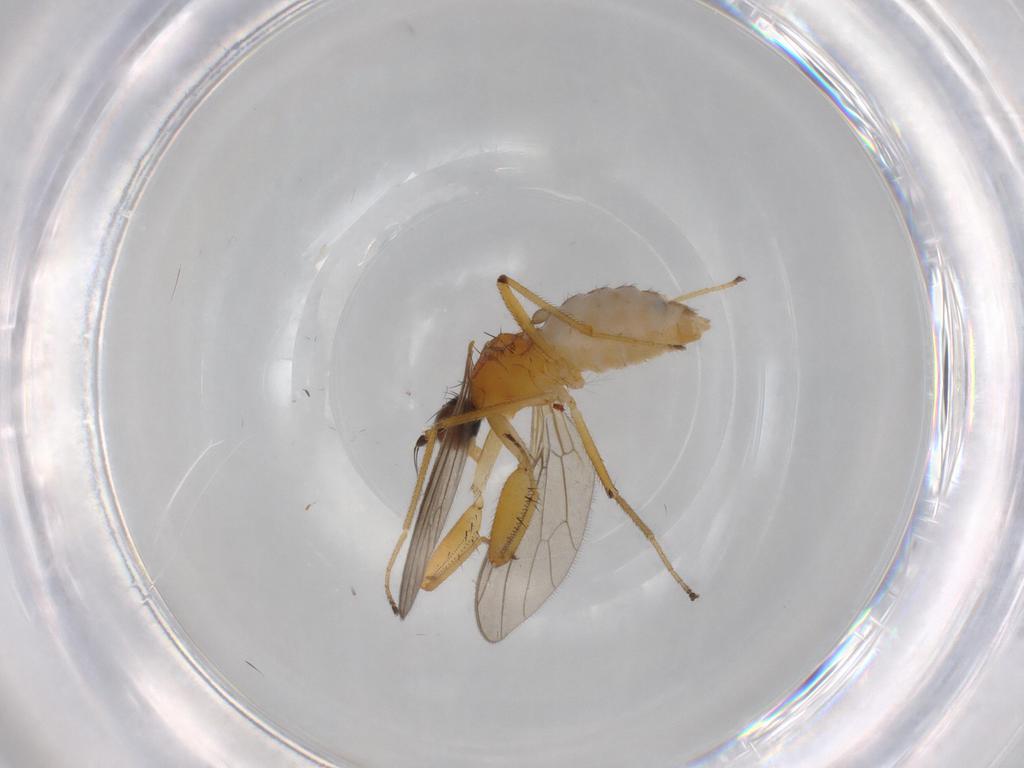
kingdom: Animalia
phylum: Arthropoda
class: Insecta
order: Diptera
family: Empididae
